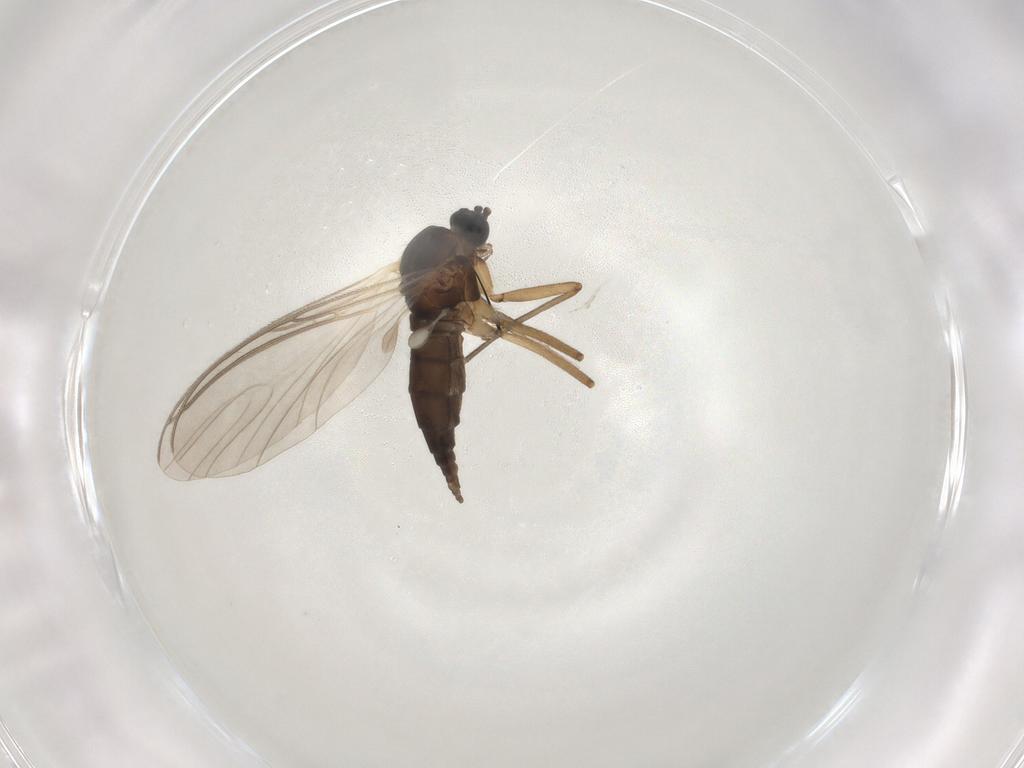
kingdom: Animalia
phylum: Arthropoda
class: Insecta
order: Diptera
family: Sciaridae
